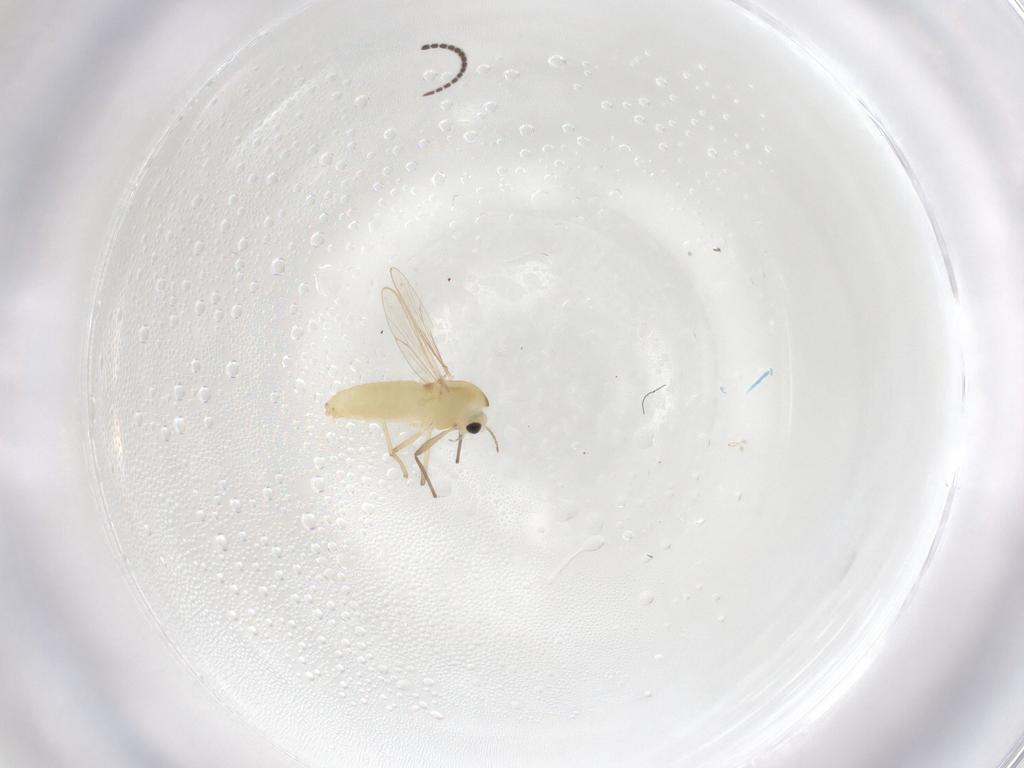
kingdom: Animalia
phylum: Arthropoda
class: Insecta
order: Diptera
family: Chironomidae
